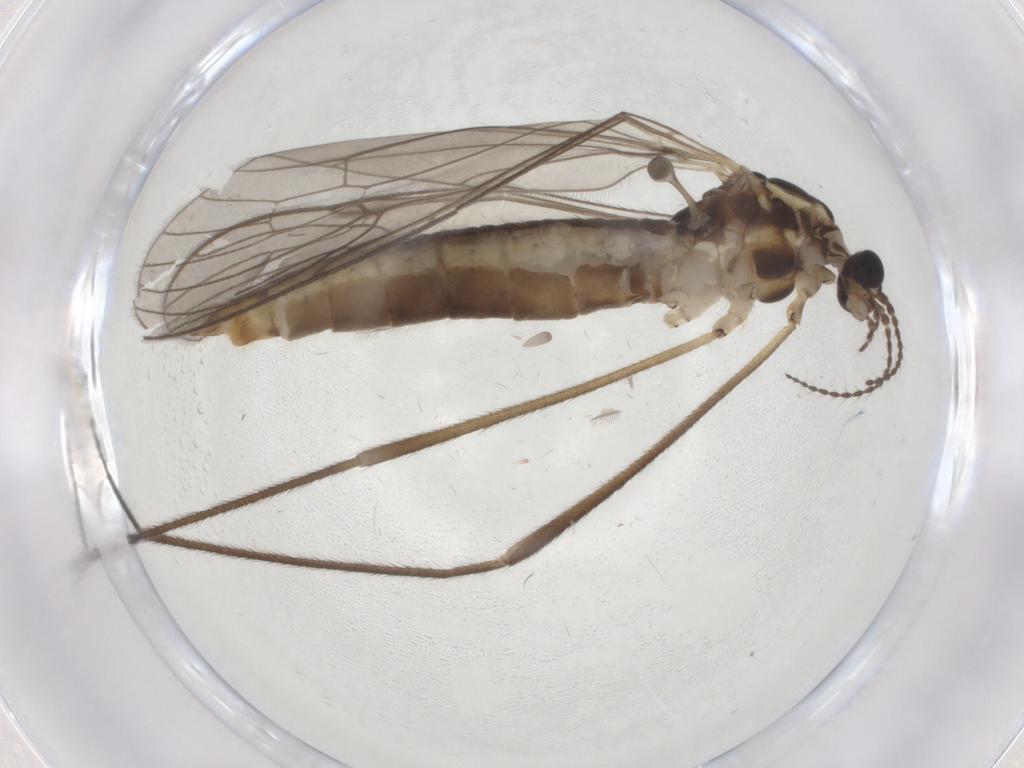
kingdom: Animalia
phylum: Arthropoda
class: Insecta
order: Diptera
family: Sciaridae
